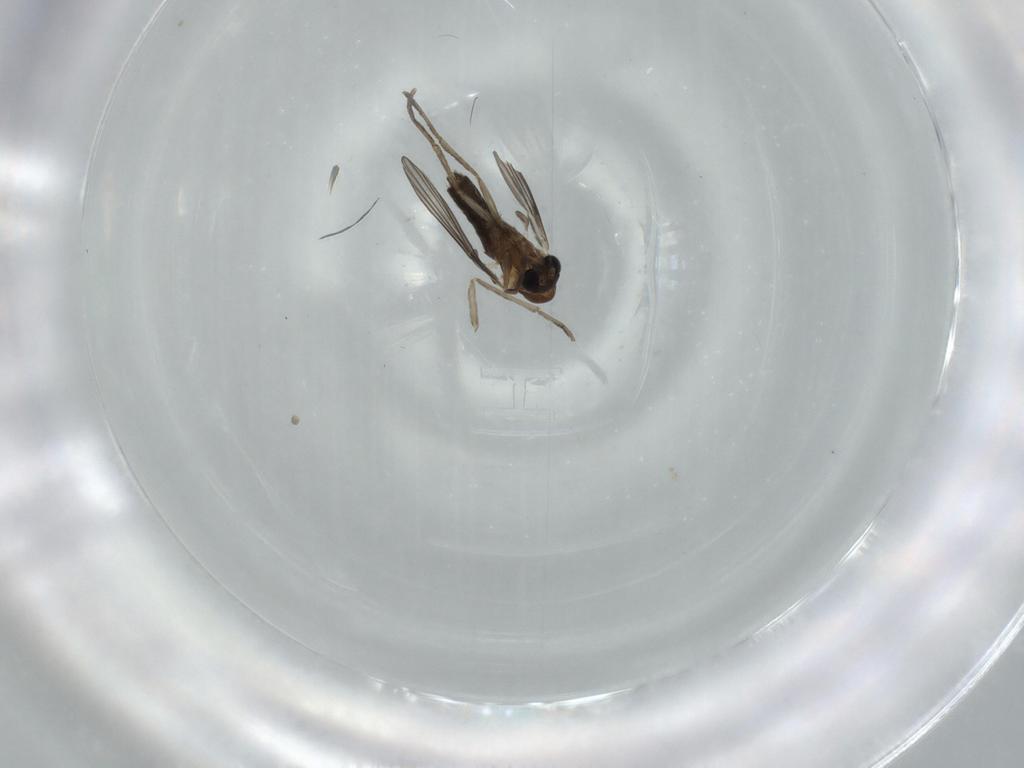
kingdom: Animalia
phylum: Arthropoda
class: Insecta
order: Diptera
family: Psychodidae
